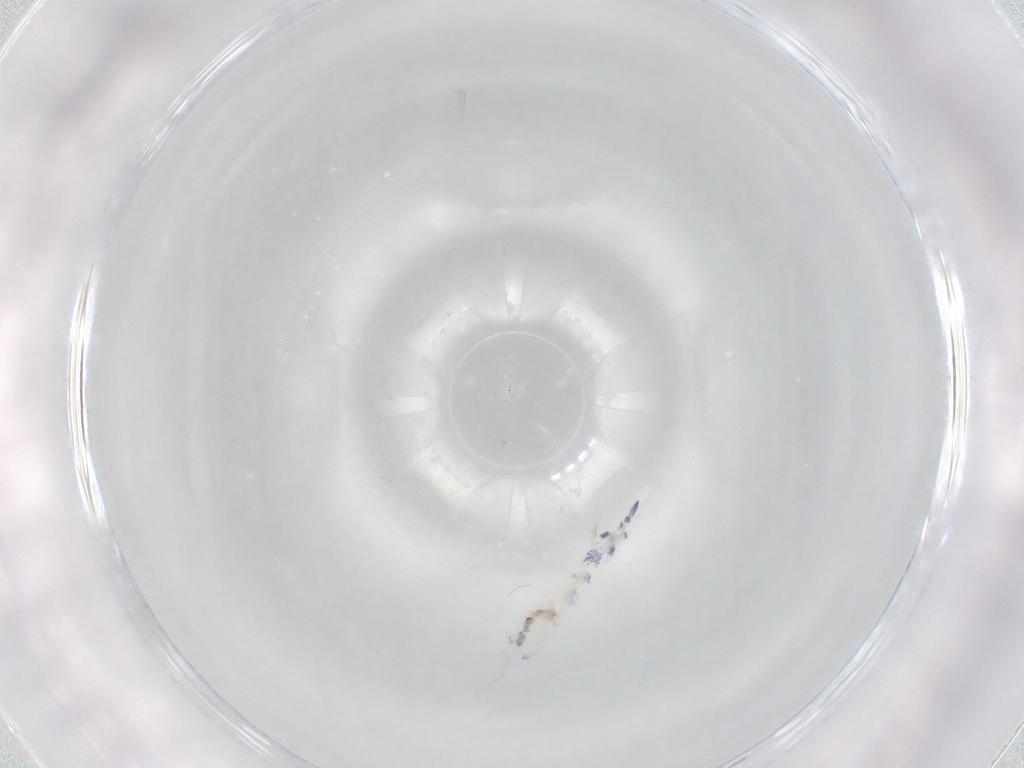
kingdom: Animalia
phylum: Arthropoda
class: Collembola
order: Entomobryomorpha
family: Entomobryidae
